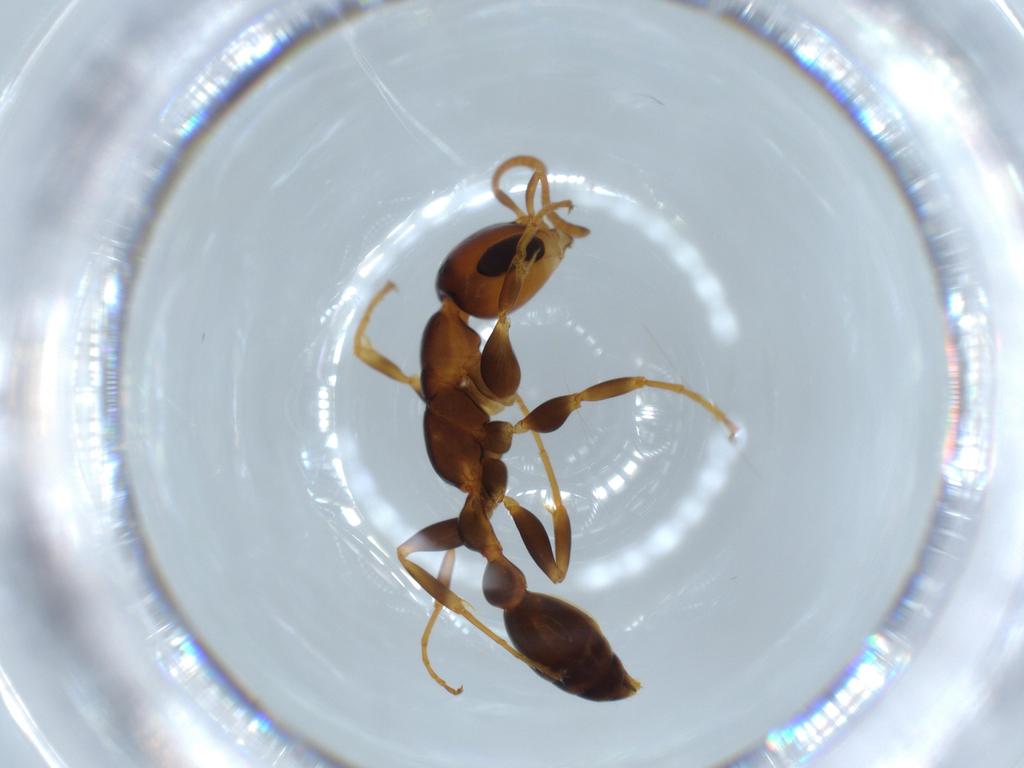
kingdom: Animalia
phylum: Arthropoda
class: Insecta
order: Hymenoptera
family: Formicidae
